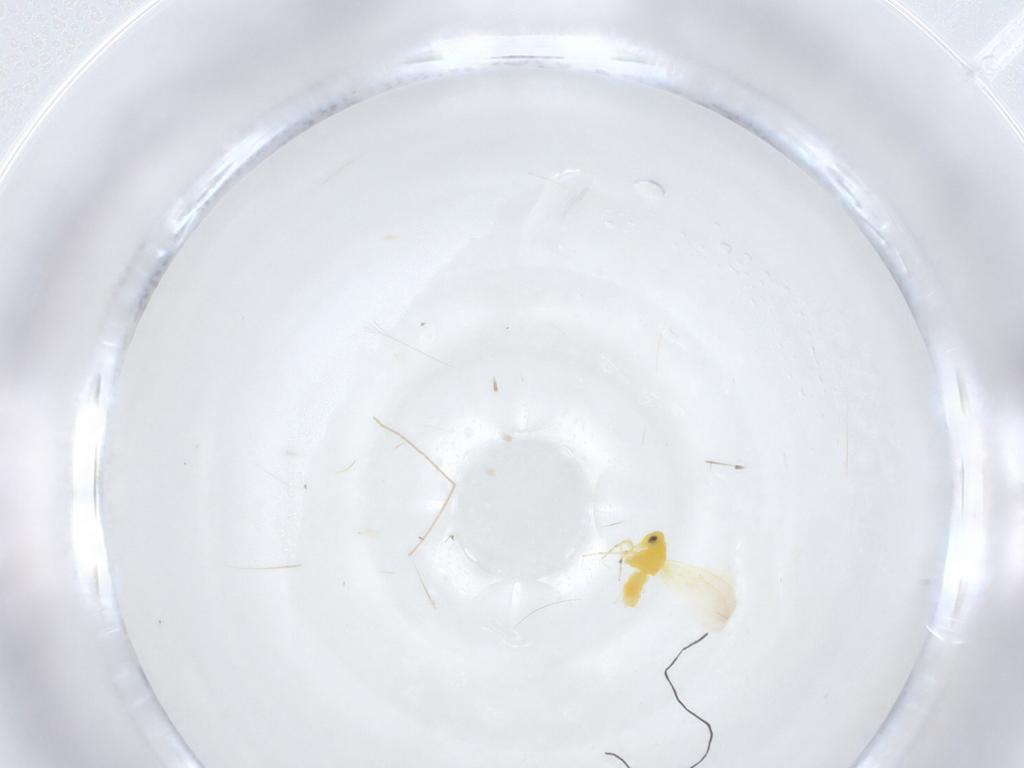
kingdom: Animalia
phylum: Arthropoda
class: Insecta
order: Hemiptera
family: Aleyrodidae
